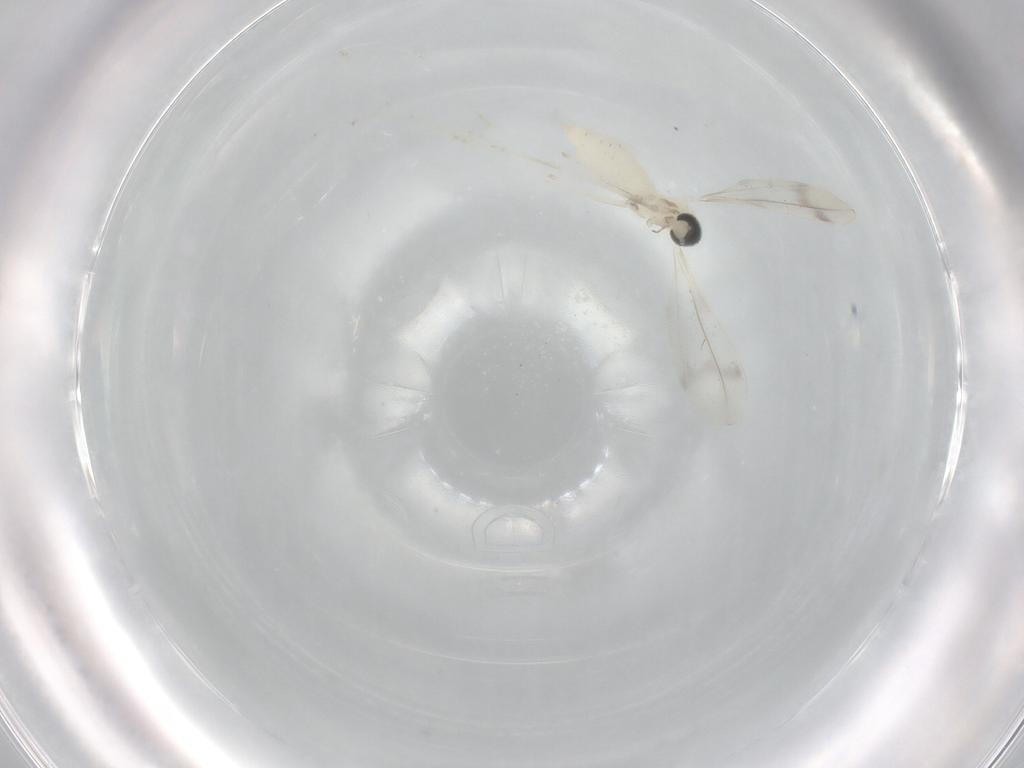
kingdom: Animalia
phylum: Arthropoda
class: Insecta
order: Diptera
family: Cecidomyiidae
